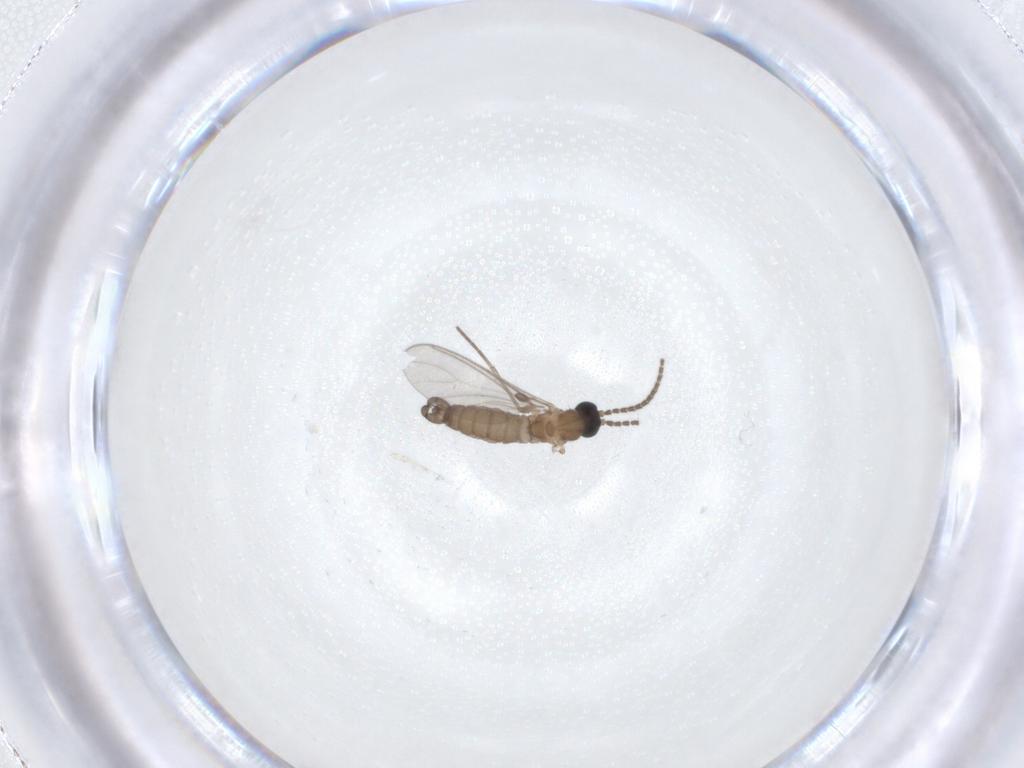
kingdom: Animalia
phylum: Arthropoda
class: Insecta
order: Diptera
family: Sciaridae
